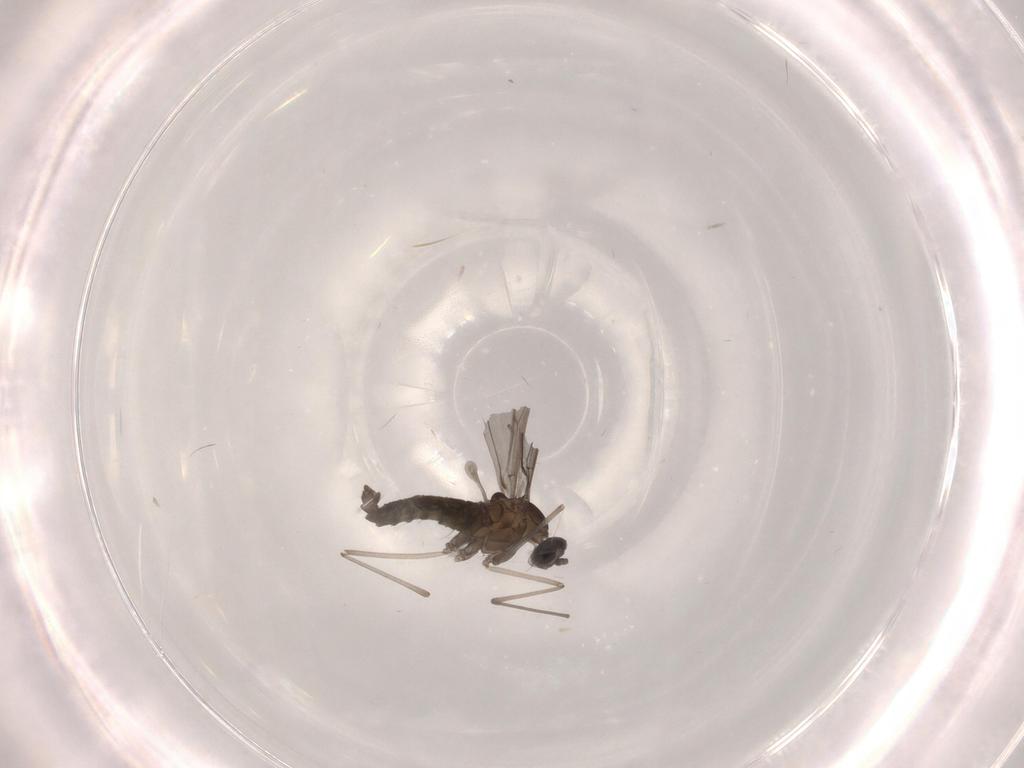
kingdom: Animalia
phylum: Arthropoda
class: Insecta
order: Diptera
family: Cecidomyiidae
